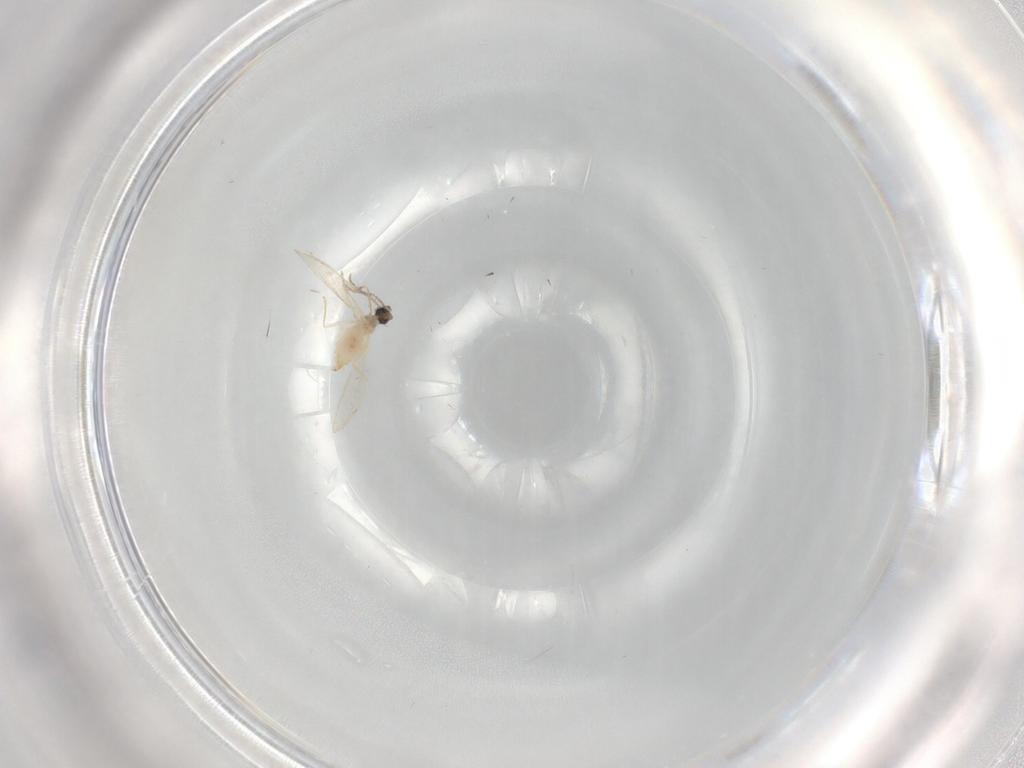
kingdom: Animalia
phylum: Arthropoda
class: Insecta
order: Diptera
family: Cecidomyiidae
